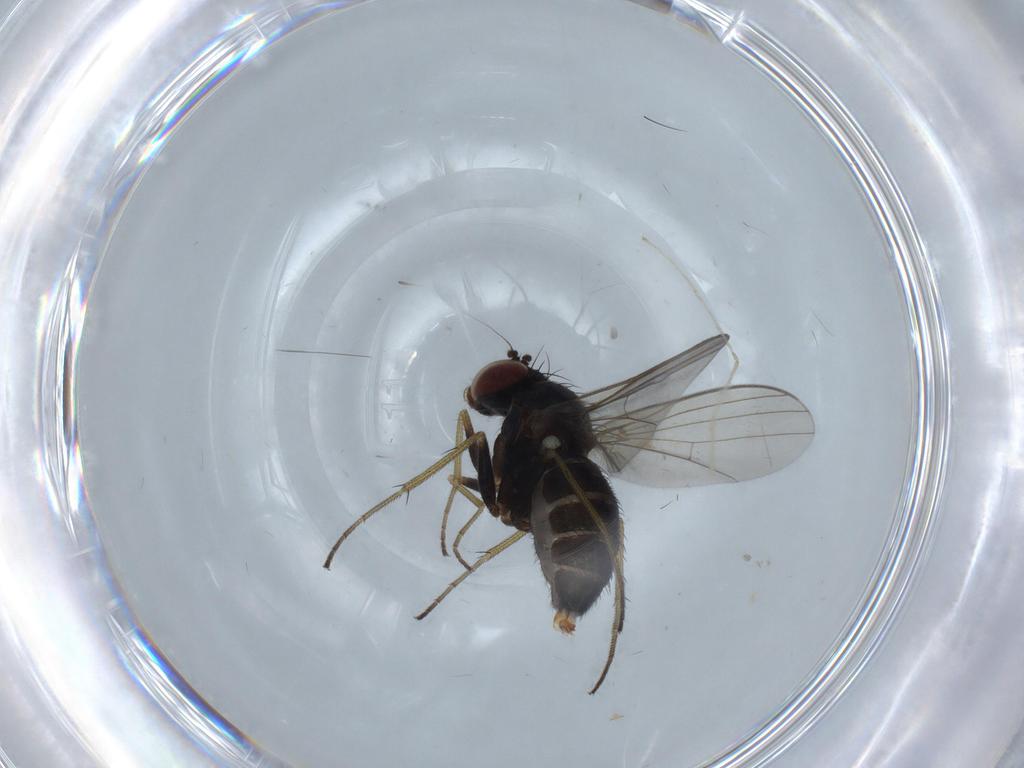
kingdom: Animalia
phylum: Arthropoda
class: Insecta
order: Diptera
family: Dolichopodidae
